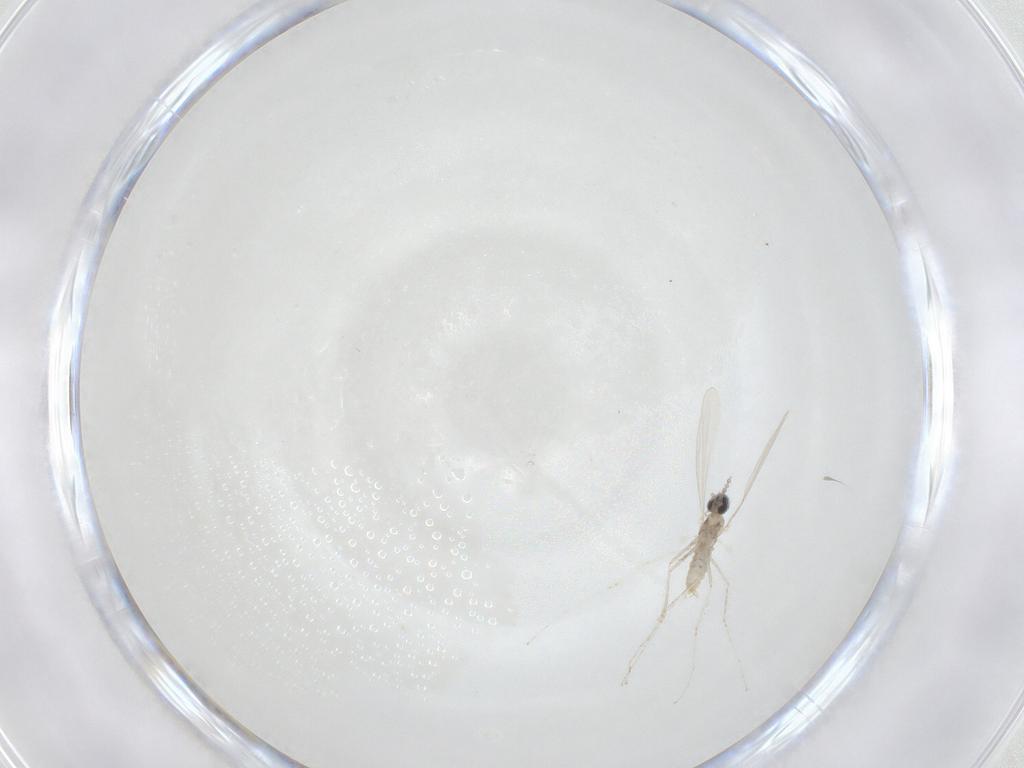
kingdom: Animalia
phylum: Arthropoda
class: Insecta
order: Diptera
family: Cecidomyiidae
